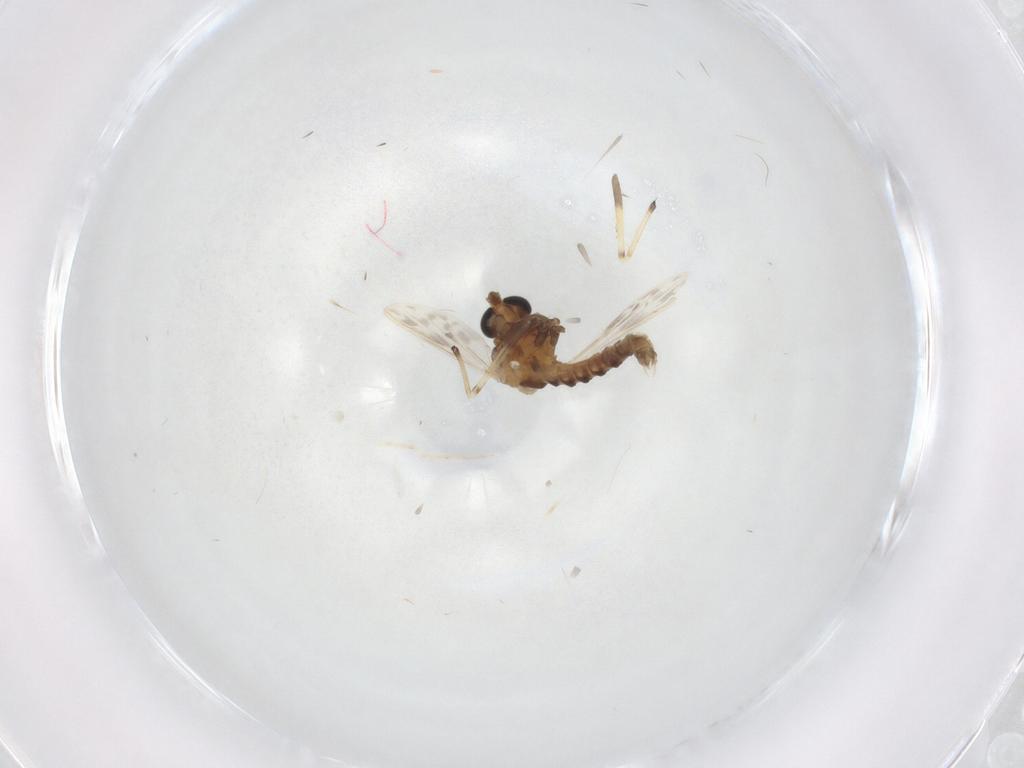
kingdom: Animalia
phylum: Arthropoda
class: Insecta
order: Diptera
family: Chironomidae
